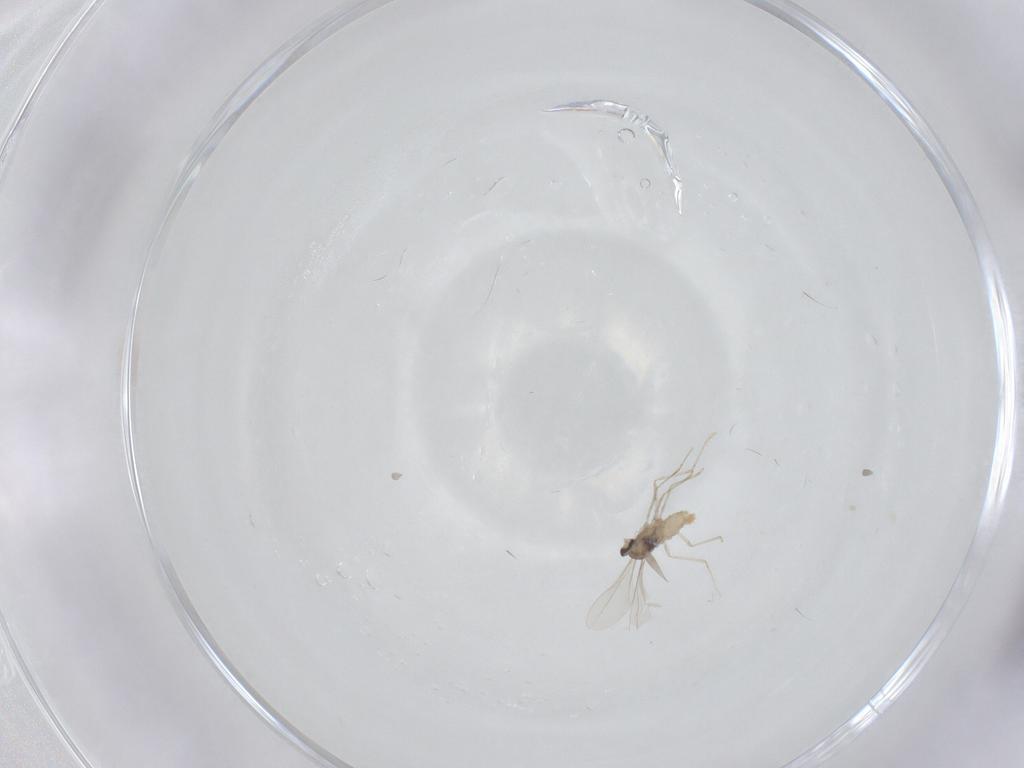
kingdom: Animalia
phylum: Arthropoda
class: Insecta
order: Diptera
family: Cecidomyiidae
